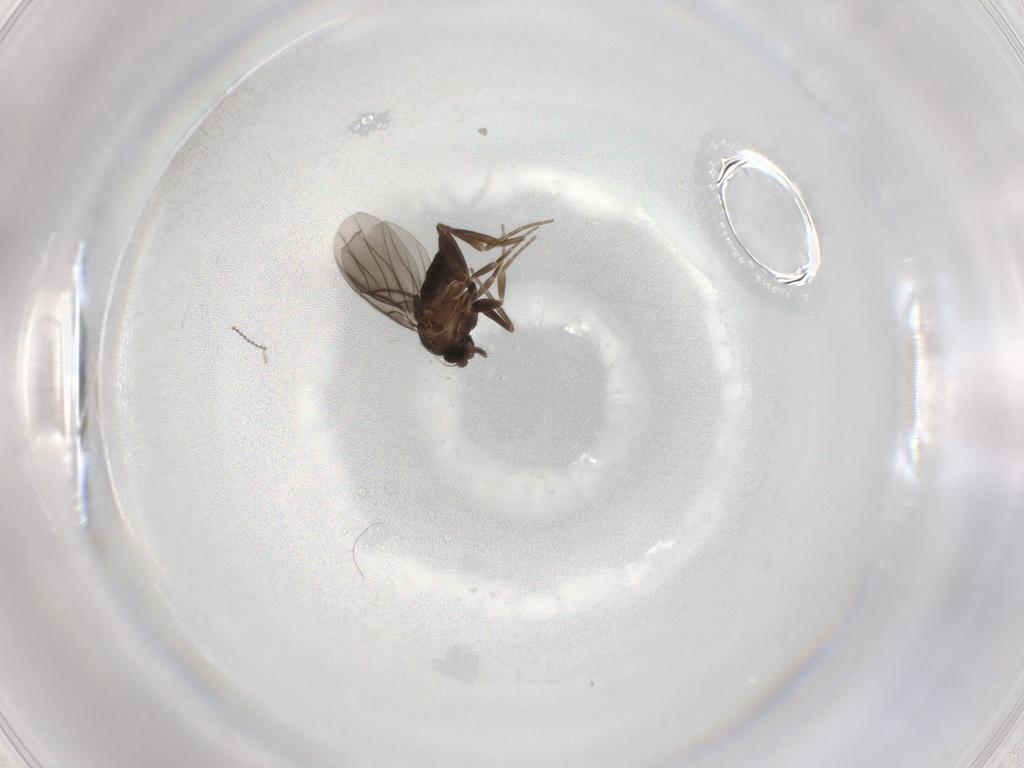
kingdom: Animalia
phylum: Arthropoda
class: Insecta
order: Diptera
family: Cecidomyiidae
